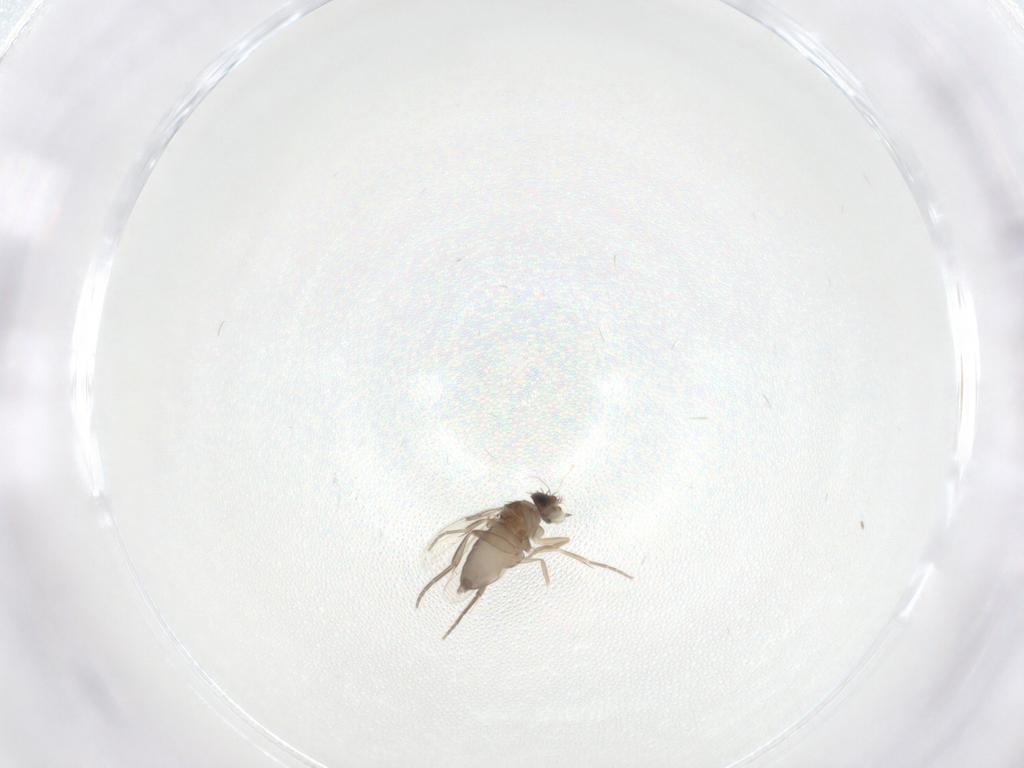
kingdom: Animalia
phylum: Arthropoda
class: Insecta
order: Diptera
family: Phoridae
